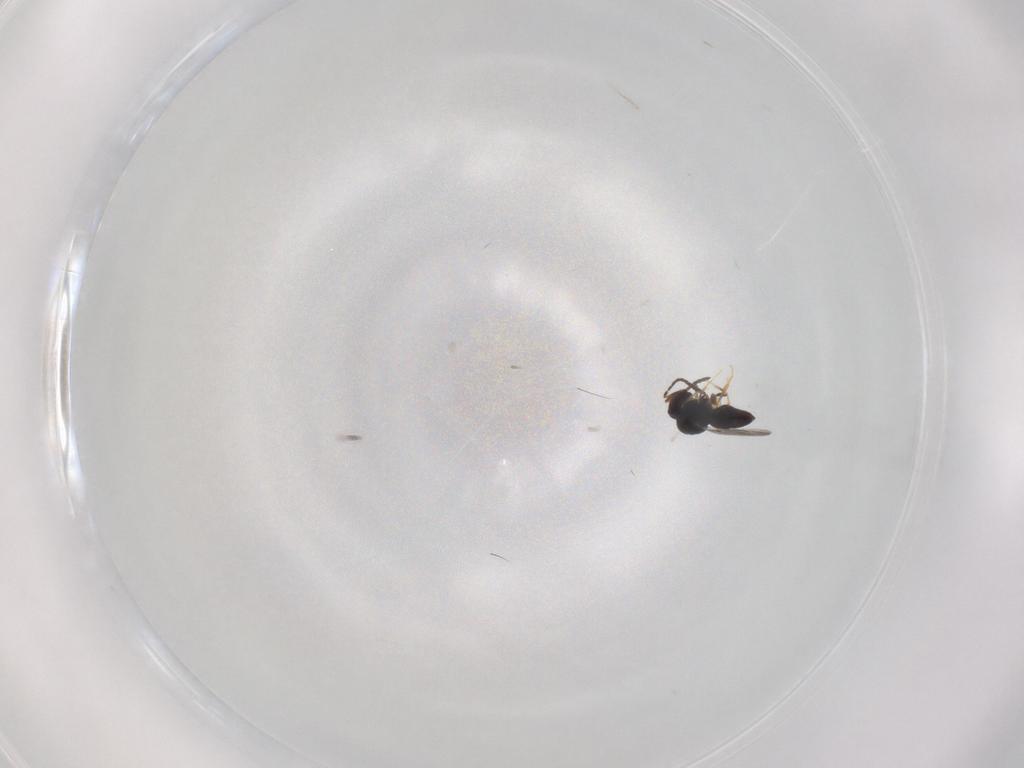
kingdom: Animalia
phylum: Arthropoda
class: Insecta
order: Hymenoptera
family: Ceraphronidae
